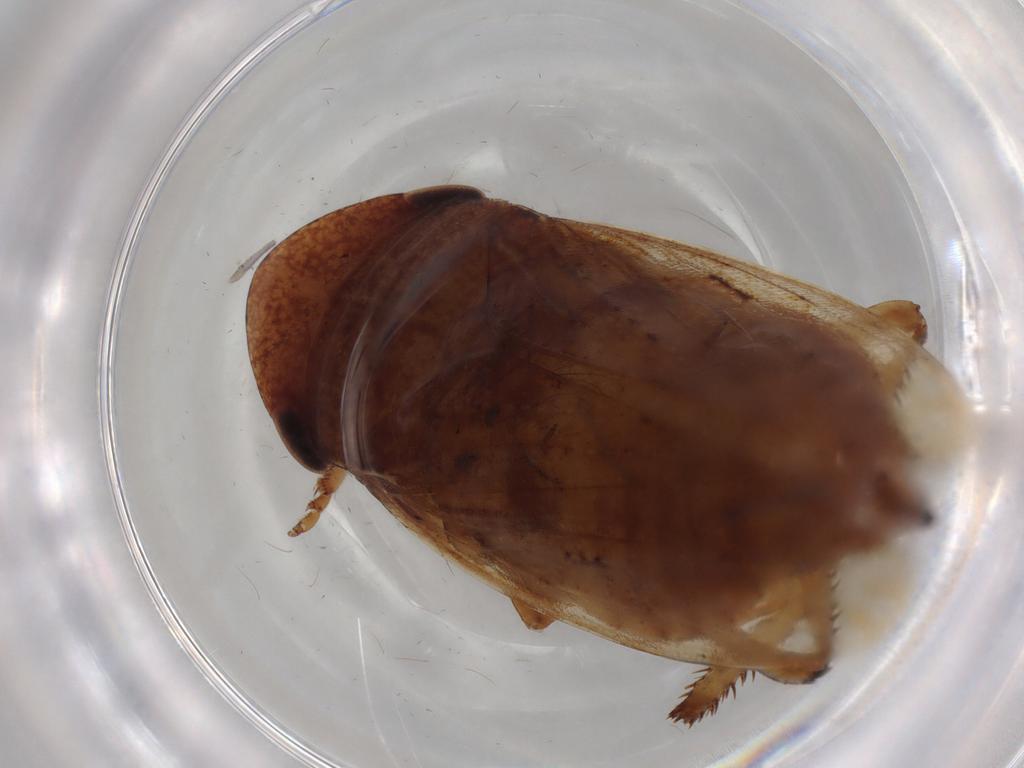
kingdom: Animalia
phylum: Arthropoda
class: Insecta
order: Hemiptera
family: Cicadellidae
